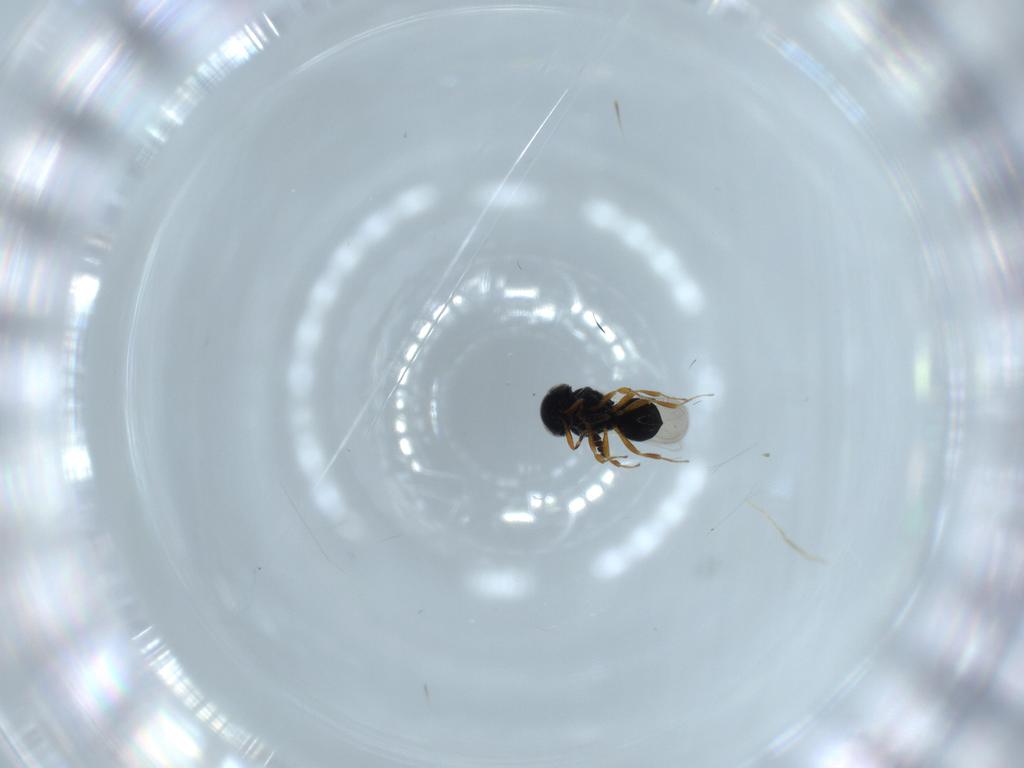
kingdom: Animalia
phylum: Arthropoda
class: Insecta
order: Hymenoptera
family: Scelionidae
